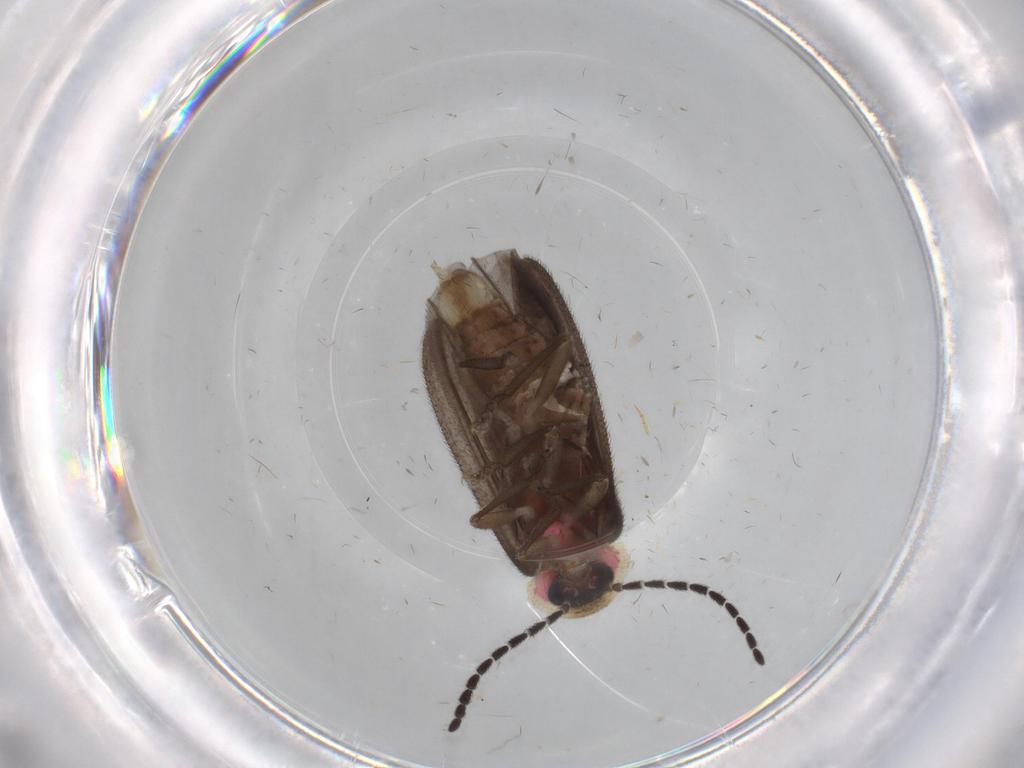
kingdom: Animalia
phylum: Arthropoda
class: Insecta
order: Coleoptera
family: Lampyridae
